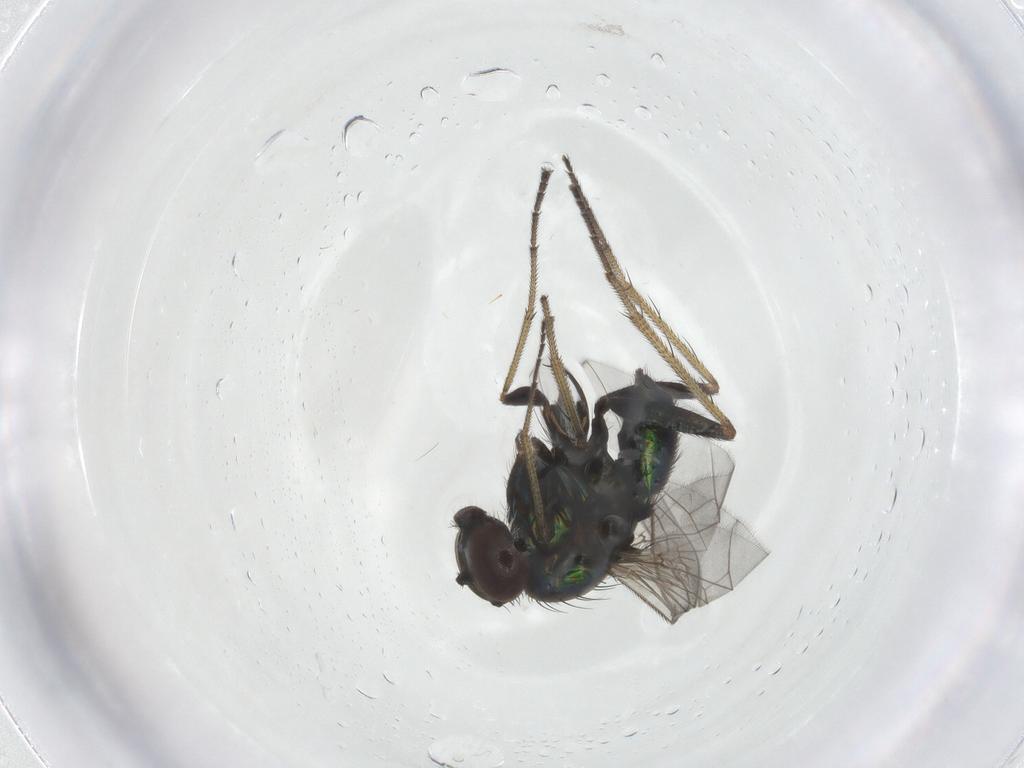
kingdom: Animalia
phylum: Arthropoda
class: Insecta
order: Diptera
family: Dolichopodidae
